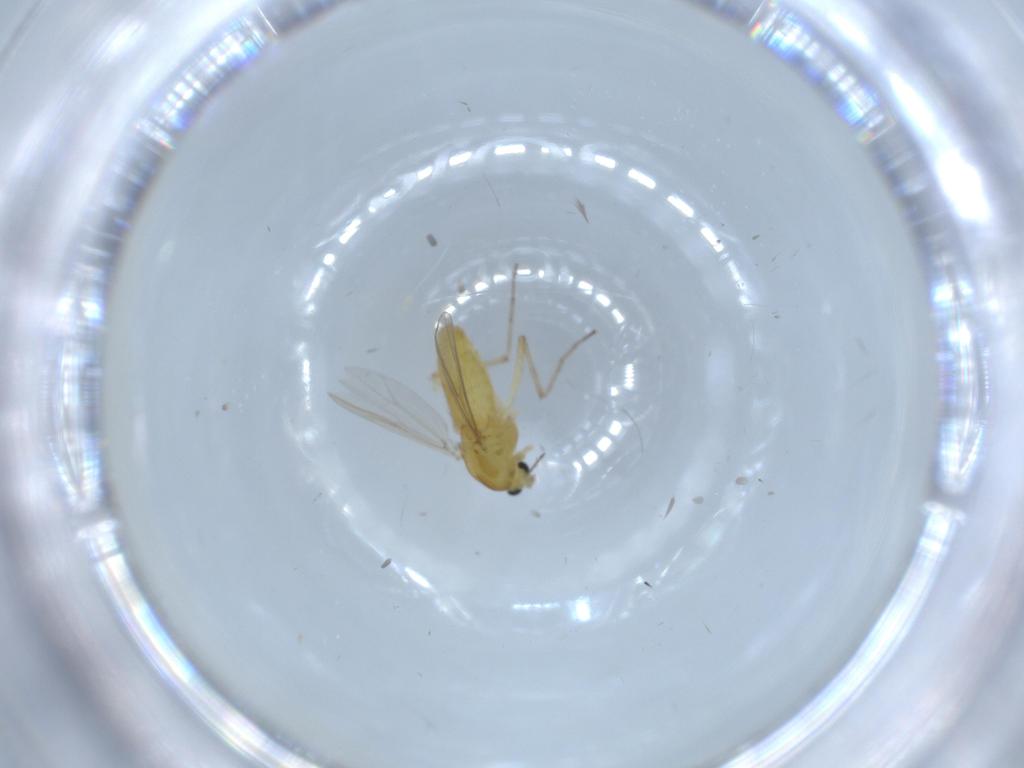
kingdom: Animalia
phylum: Arthropoda
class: Insecta
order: Diptera
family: Chironomidae
